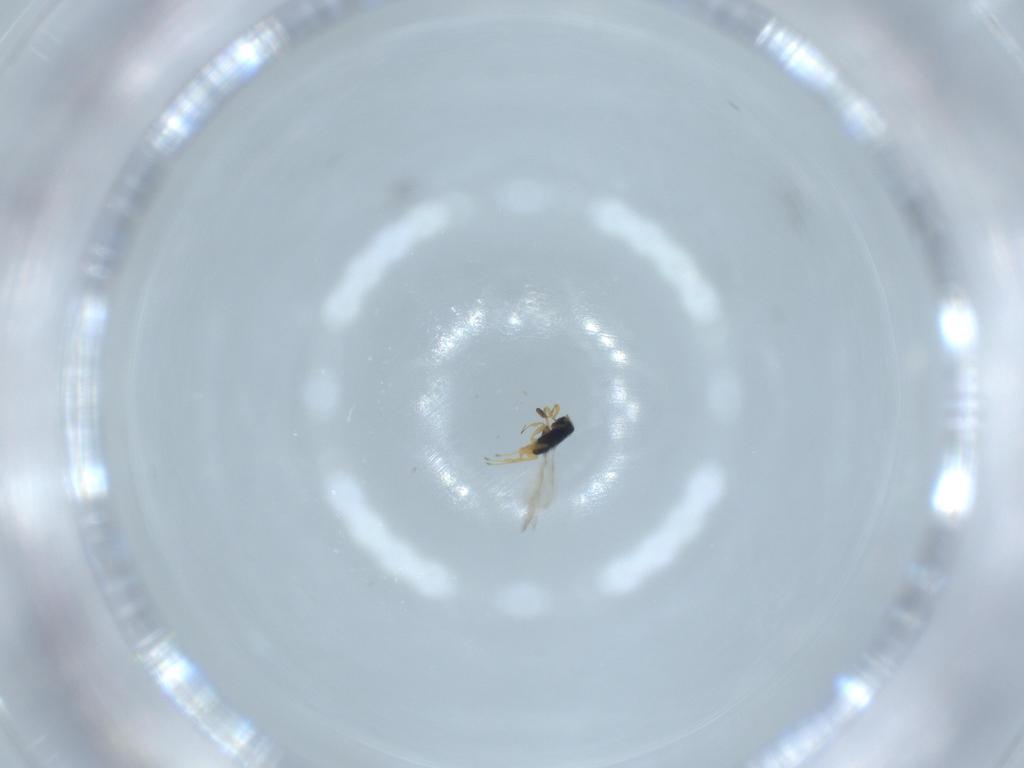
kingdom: Animalia
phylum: Arthropoda
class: Insecta
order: Hymenoptera
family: Scelionidae
